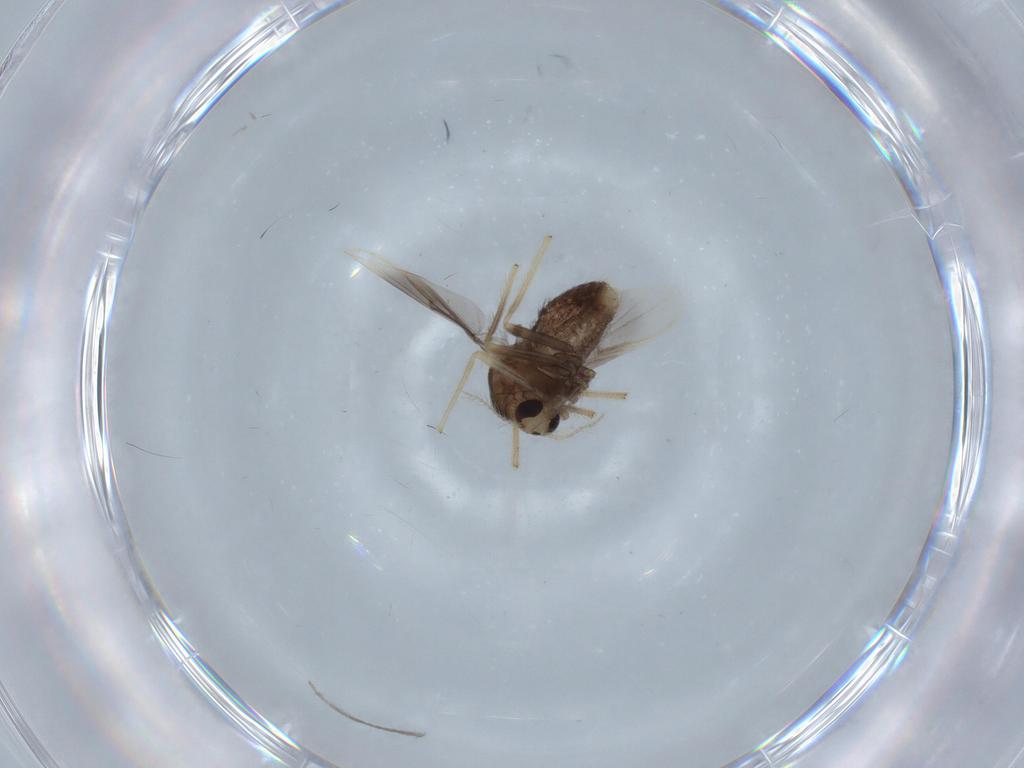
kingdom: Animalia
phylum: Arthropoda
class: Insecta
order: Diptera
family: Chironomidae
